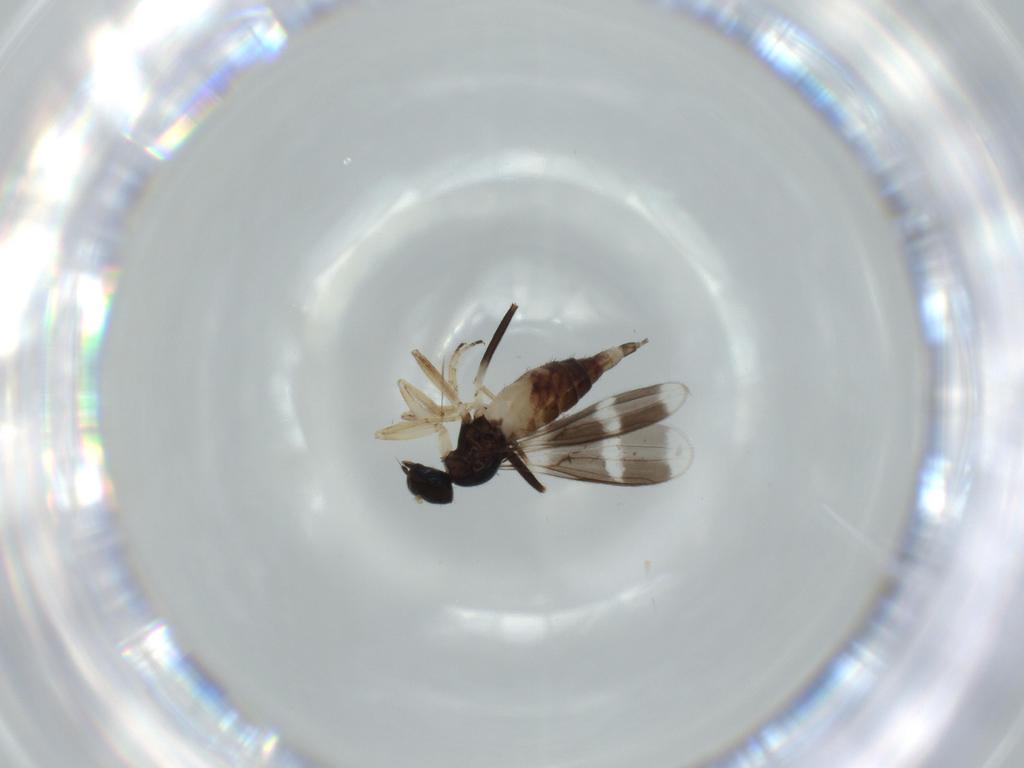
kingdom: Animalia
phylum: Arthropoda
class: Insecta
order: Diptera
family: Hybotidae
